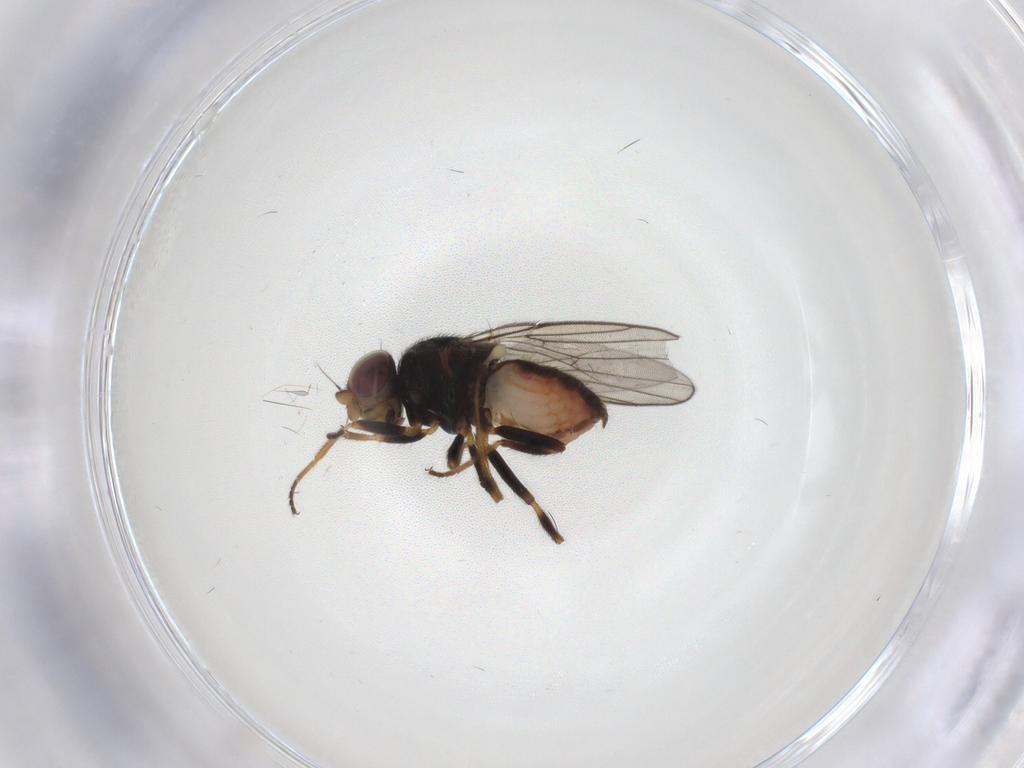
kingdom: Animalia
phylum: Arthropoda
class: Insecta
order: Diptera
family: Chloropidae
